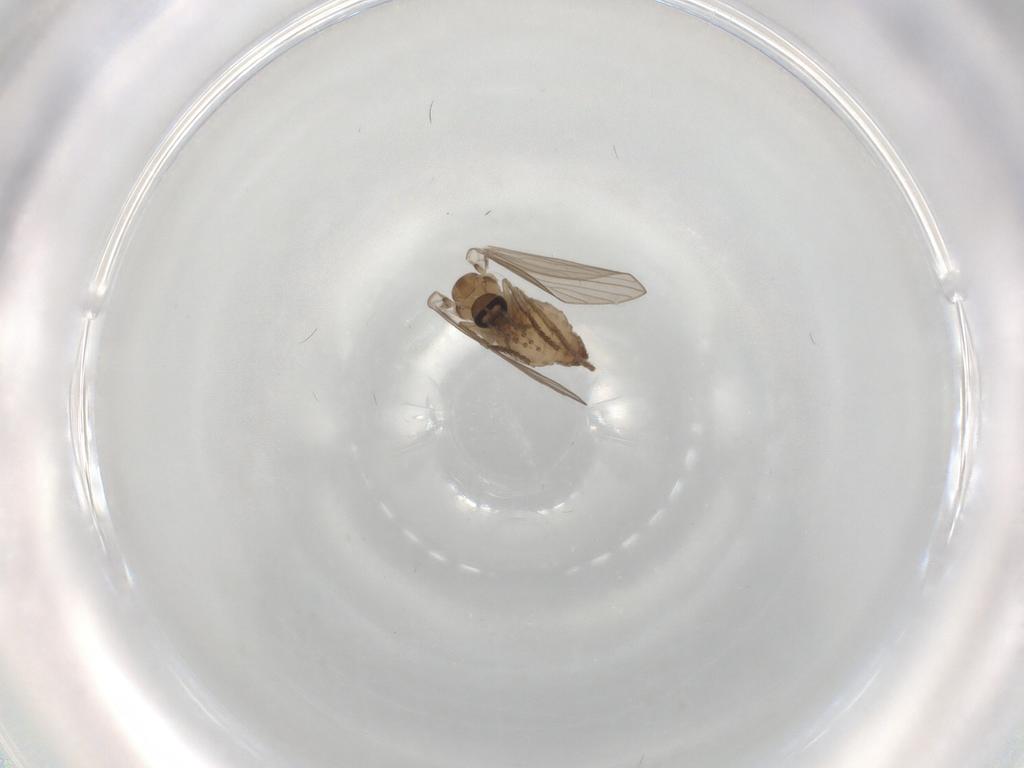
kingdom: Animalia
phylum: Arthropoda
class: Insecta
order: Diptera
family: Psychodidae
